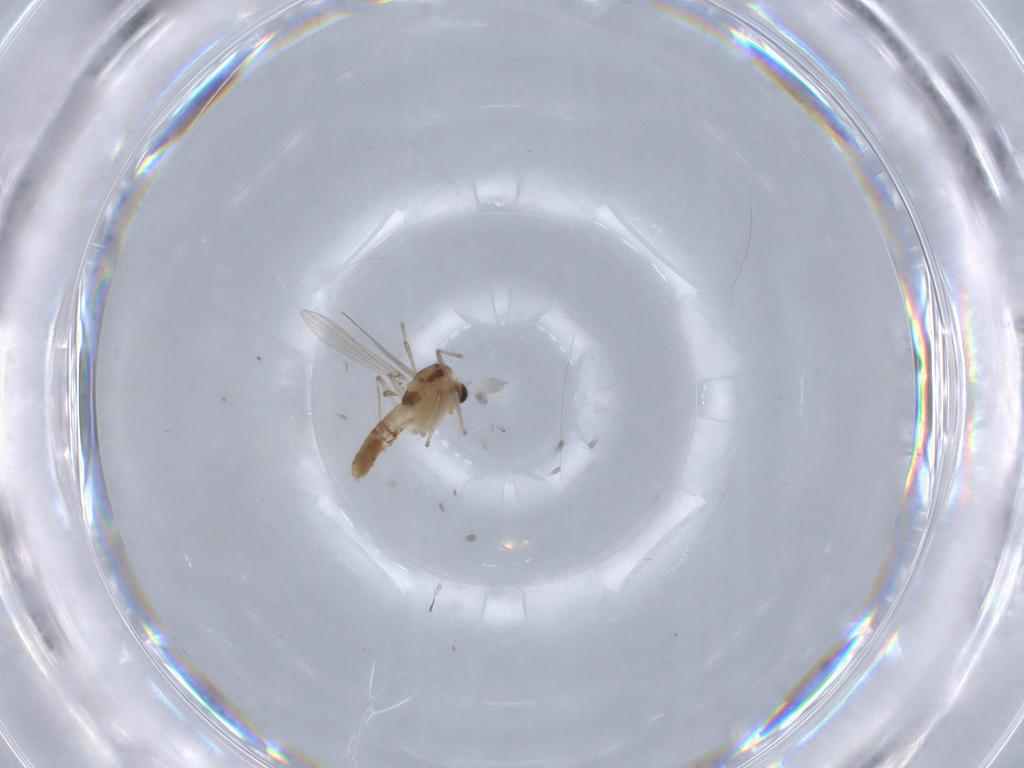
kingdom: Animalia
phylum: Arthropoda
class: Insecta
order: Diptera
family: Chironomidae
